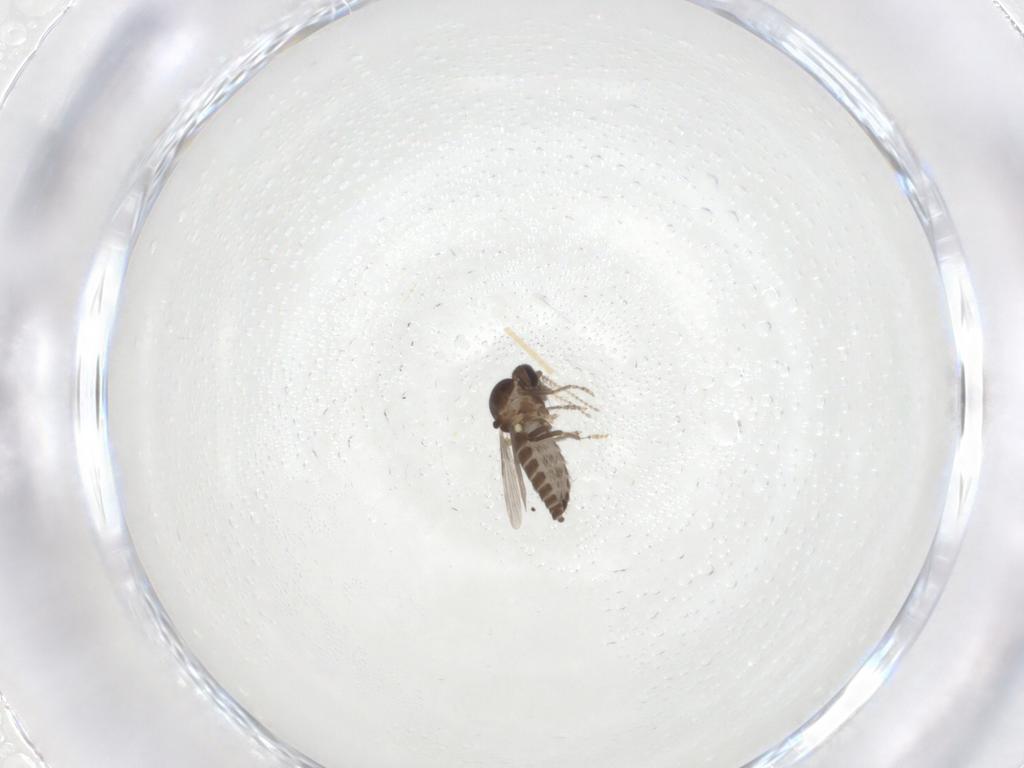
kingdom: Animalia
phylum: Arthropoda
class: Insecta
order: Diptera
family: Ceratopogonidae
